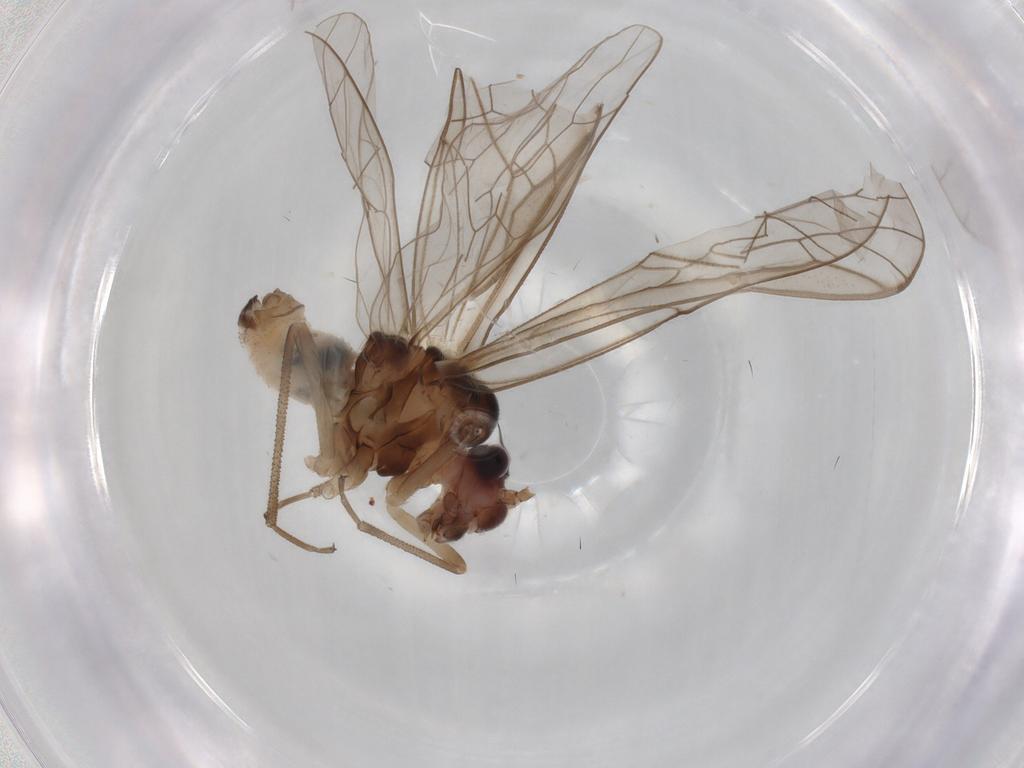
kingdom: Animalia
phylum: Arthropoda
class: Insecta
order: Psocodea
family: Stenopsocidae
